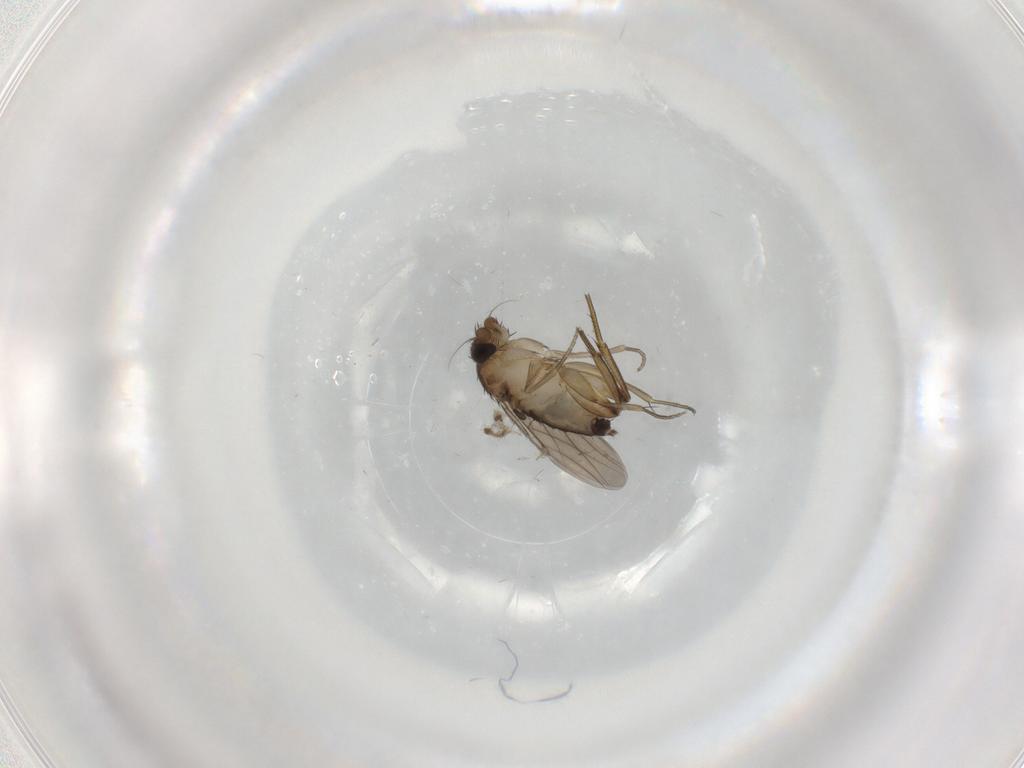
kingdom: Animalia
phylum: Arthropoda
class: Insecta
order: Diptera
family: Phoridae
